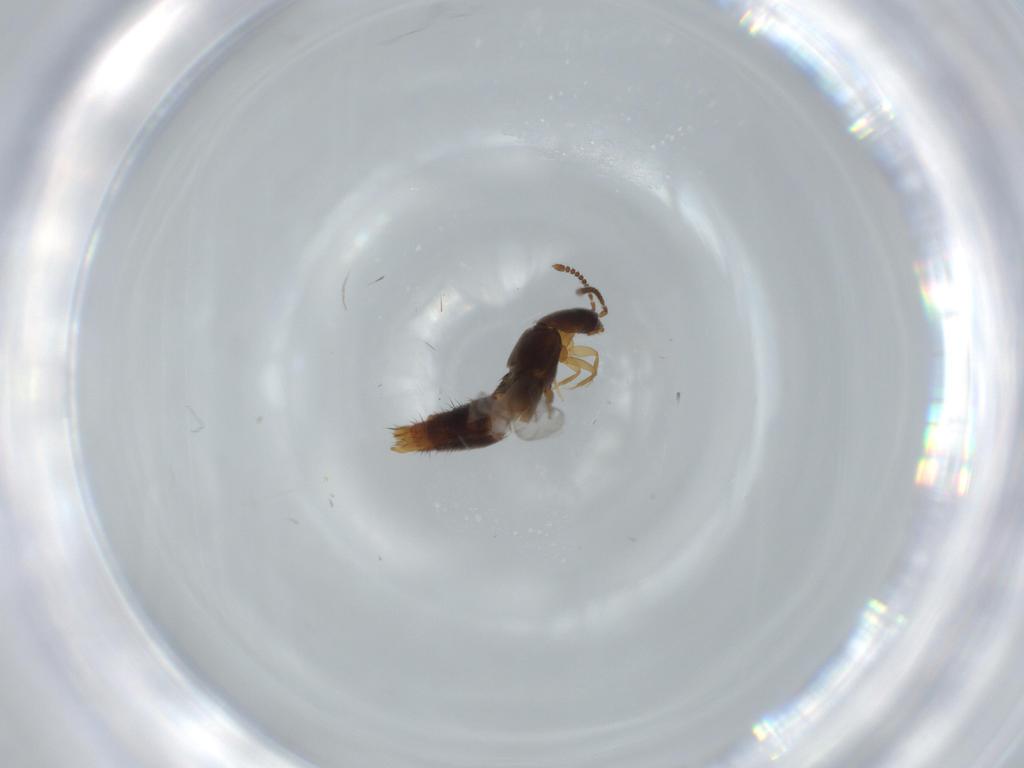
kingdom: Animalia
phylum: Arthropoda
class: Insecta
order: Coleoptera
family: Staphylinidae
